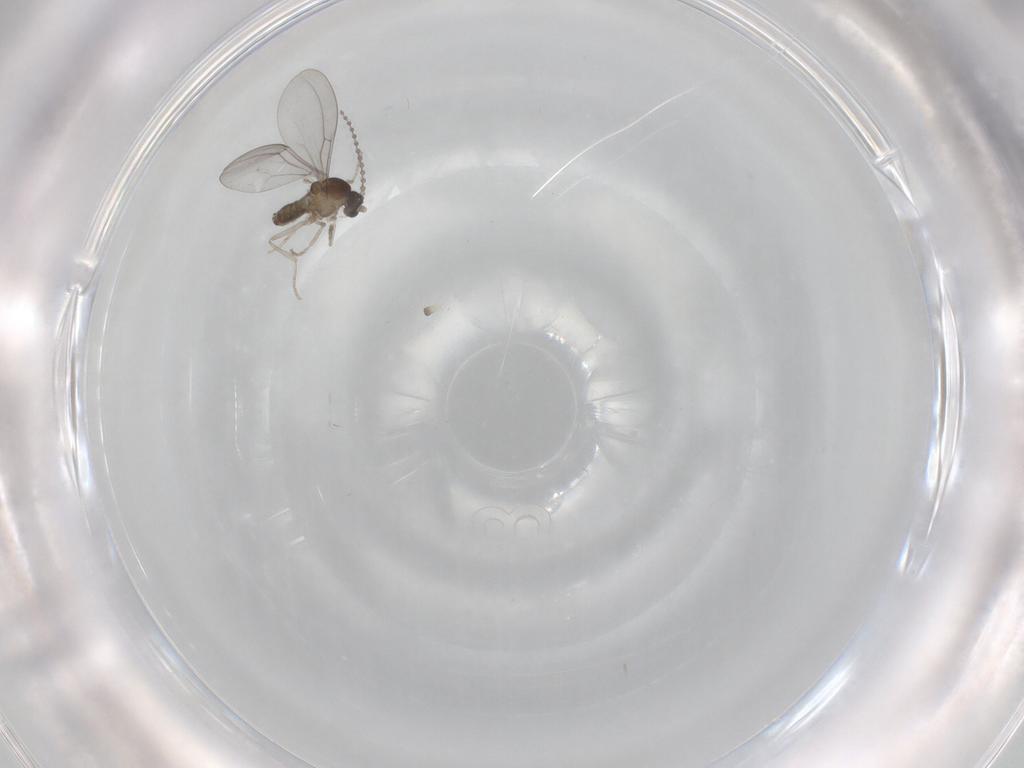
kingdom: Animalia
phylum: Arthropoda
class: Insecta
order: Diptera
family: Cecidomyiidae
